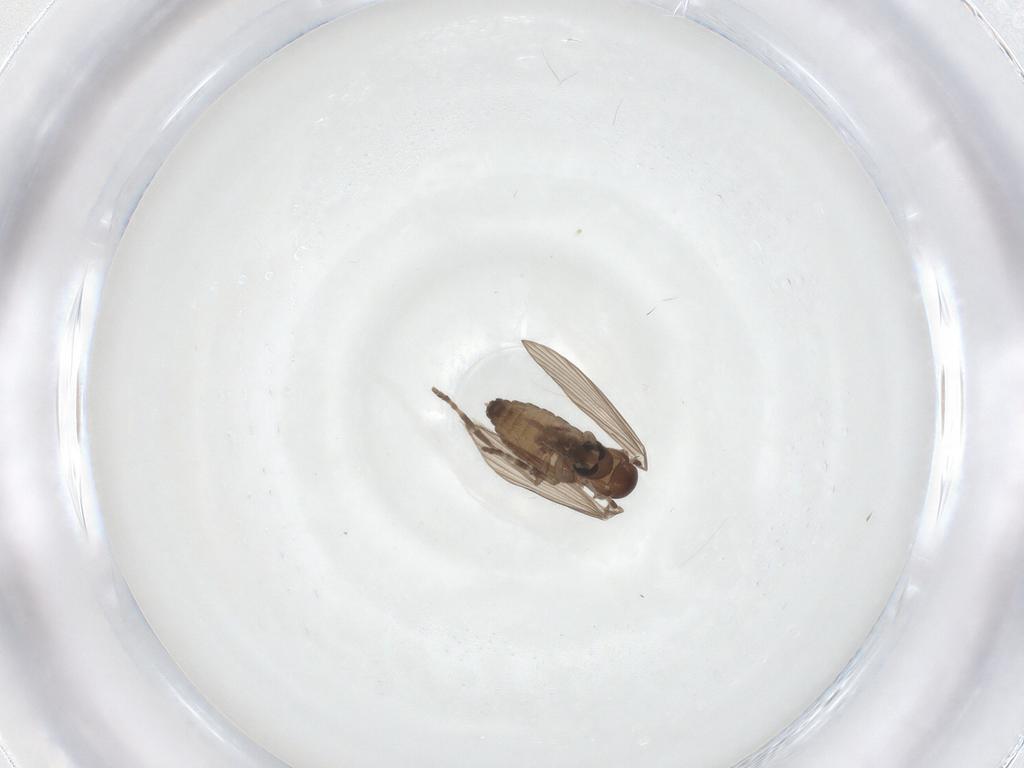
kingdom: Animalia
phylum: Arthropoda
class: Insecta
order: Diptera
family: Psychodidae
